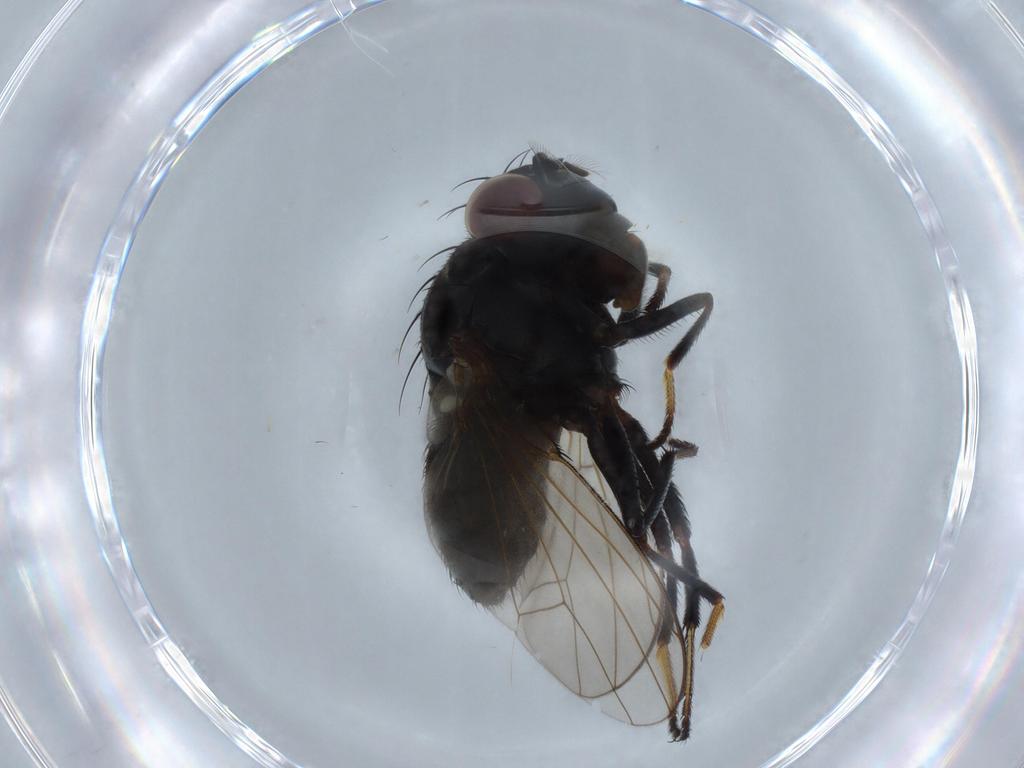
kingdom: Animalia
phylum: Arthropoda
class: Insecta
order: Diptera
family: Ephydridae
